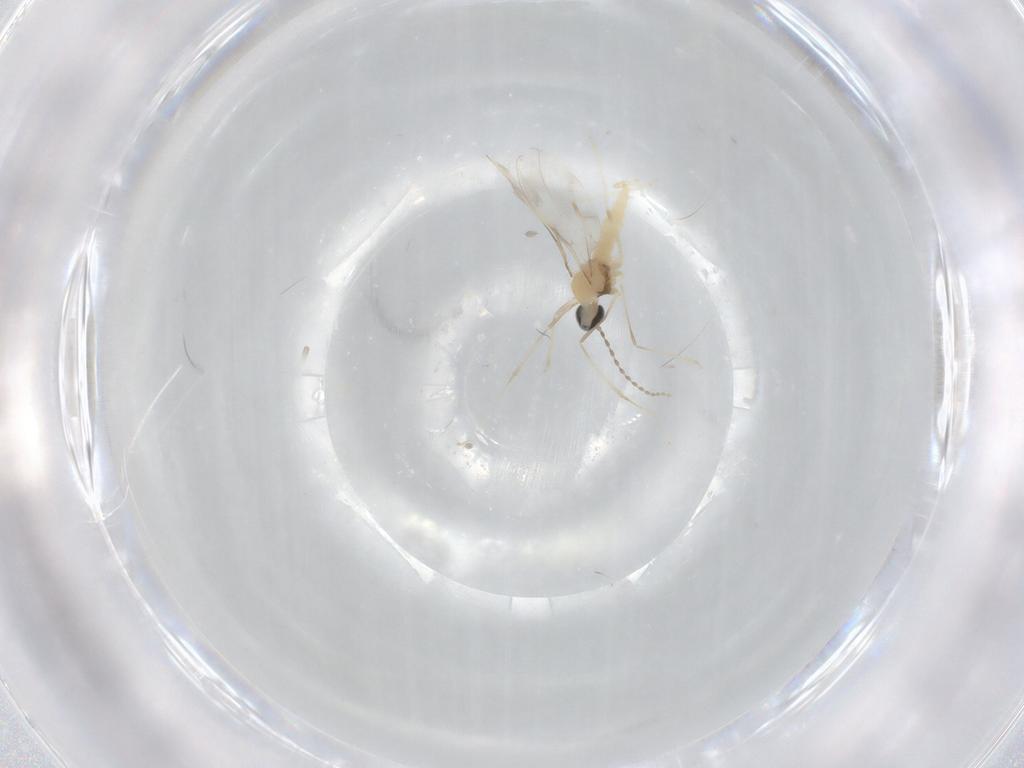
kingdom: Animalia
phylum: Arthropoda
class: Insecta
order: Diptera
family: Cecidomyiidae
